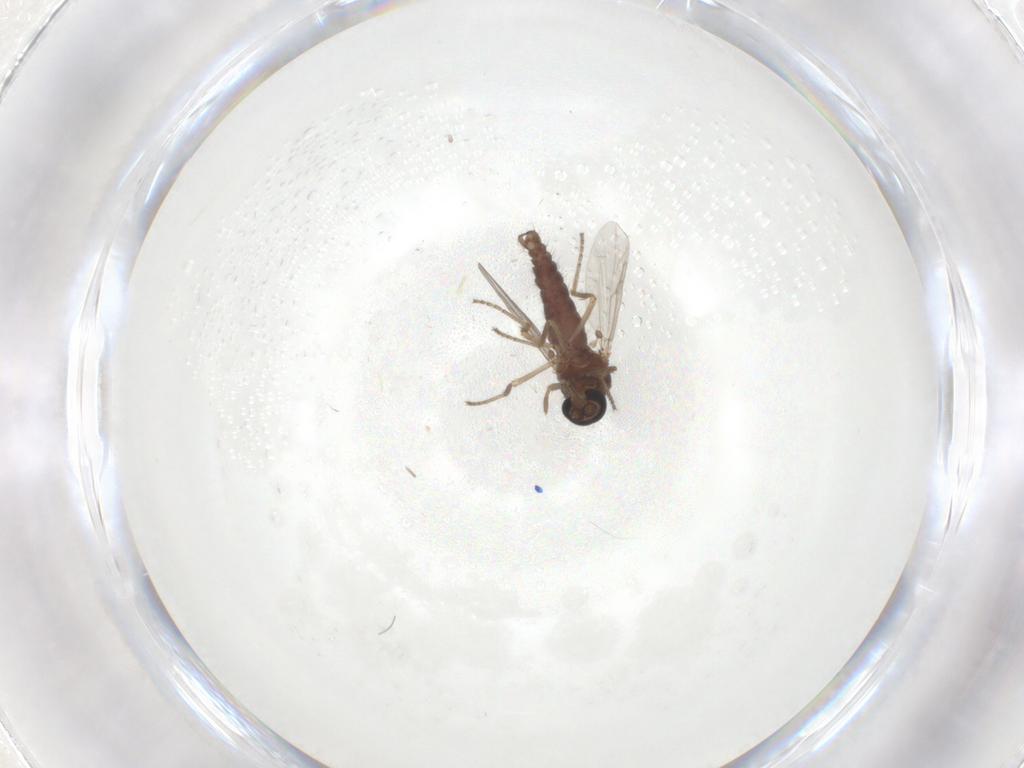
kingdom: Animalia
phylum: Arthropoda
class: Insecta
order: Diptera
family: Ceratopogonidae
